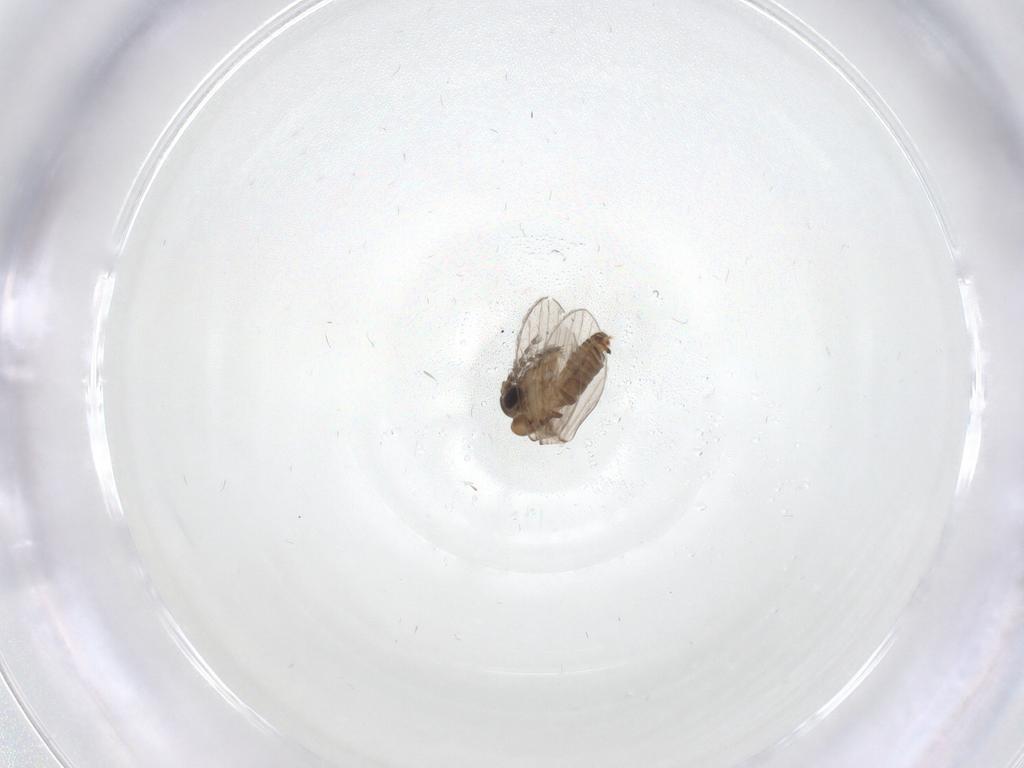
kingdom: Animalia
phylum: Arthropoda
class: Insecta
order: Diptera
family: Psychodidae
